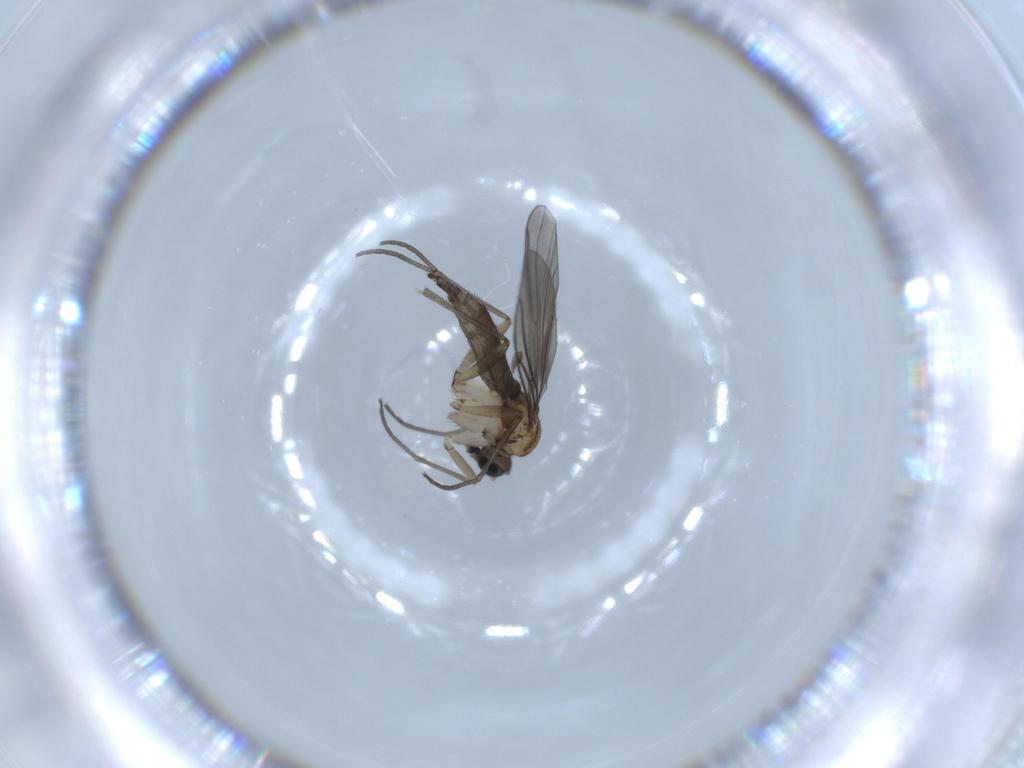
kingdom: Animalia
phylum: Arthropoda
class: Insecta
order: Diptera
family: Sciaridae
